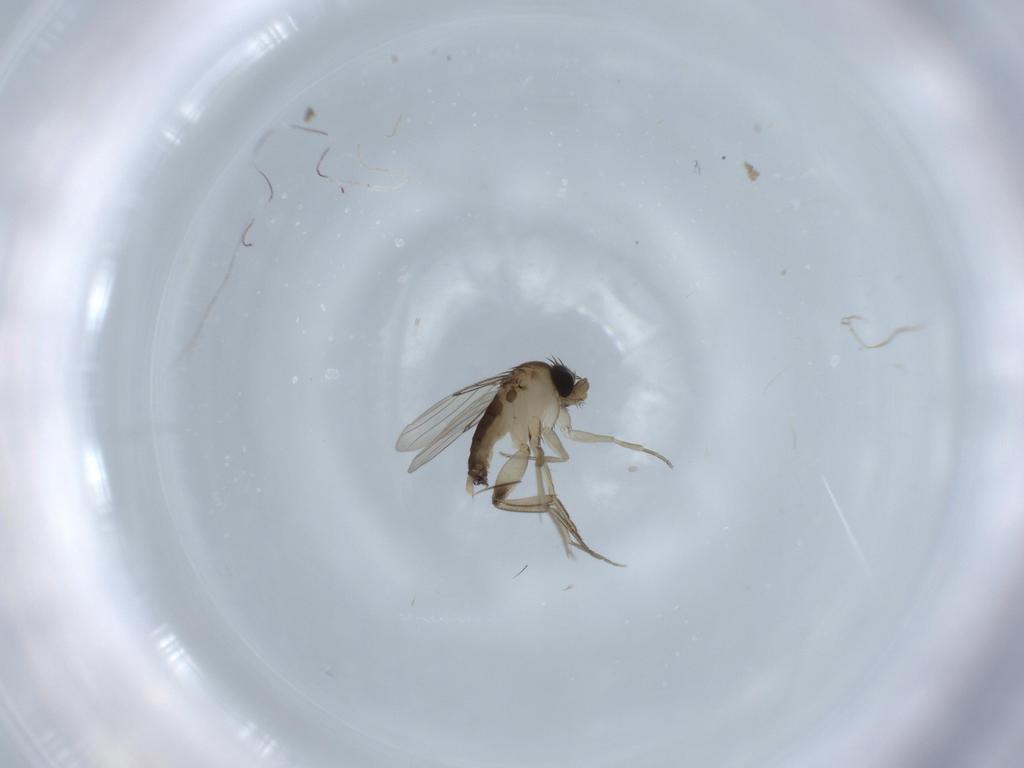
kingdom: Animalia
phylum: Arthropoda
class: Insecta
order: Diptera
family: Phoridae
